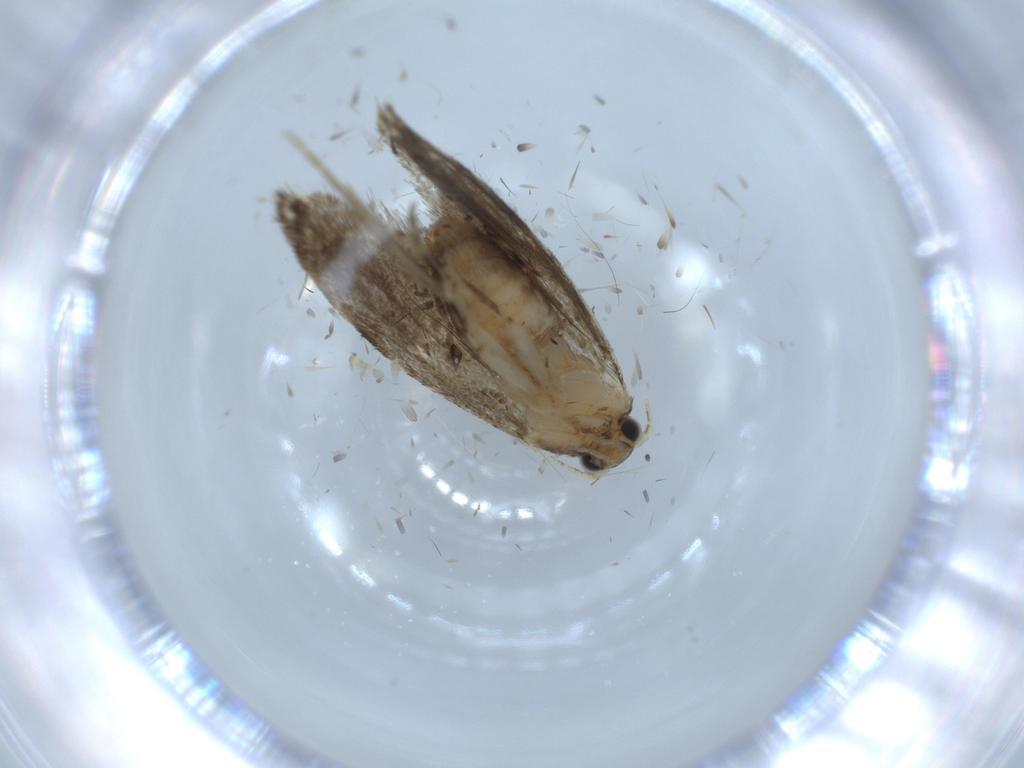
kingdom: Animalia
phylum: Arthropoda
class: Insecta
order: Lepidoptera
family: Tineidae
